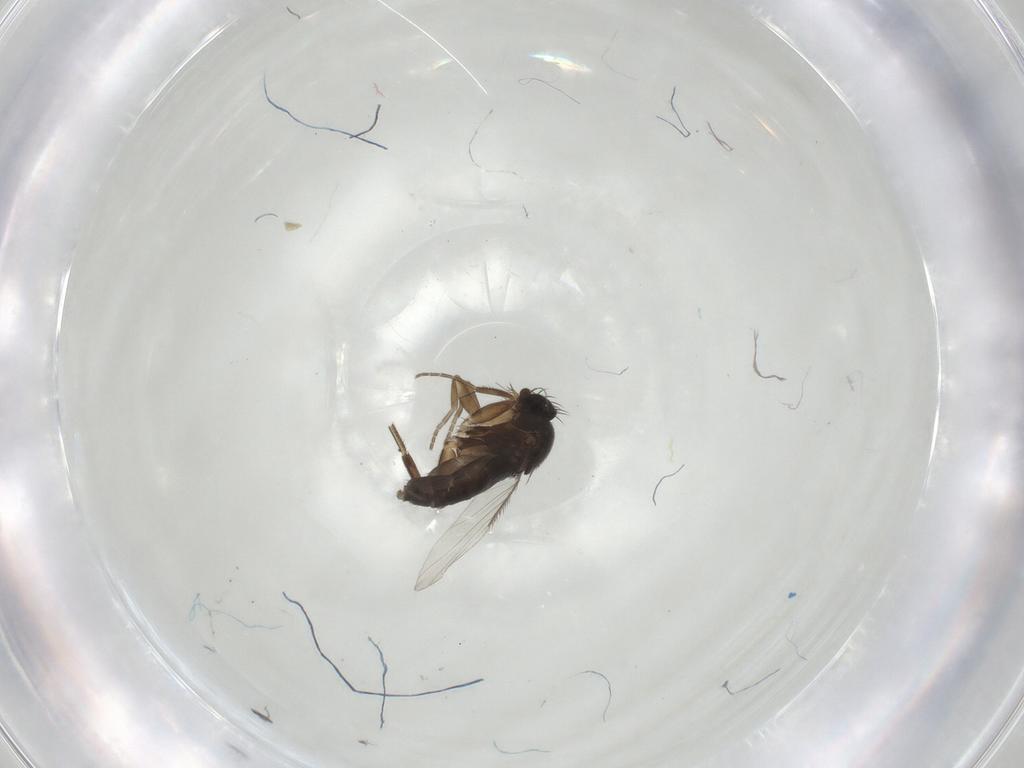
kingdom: Animalia
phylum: Arthropoda
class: Insecta
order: Diptera
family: Phoridae
